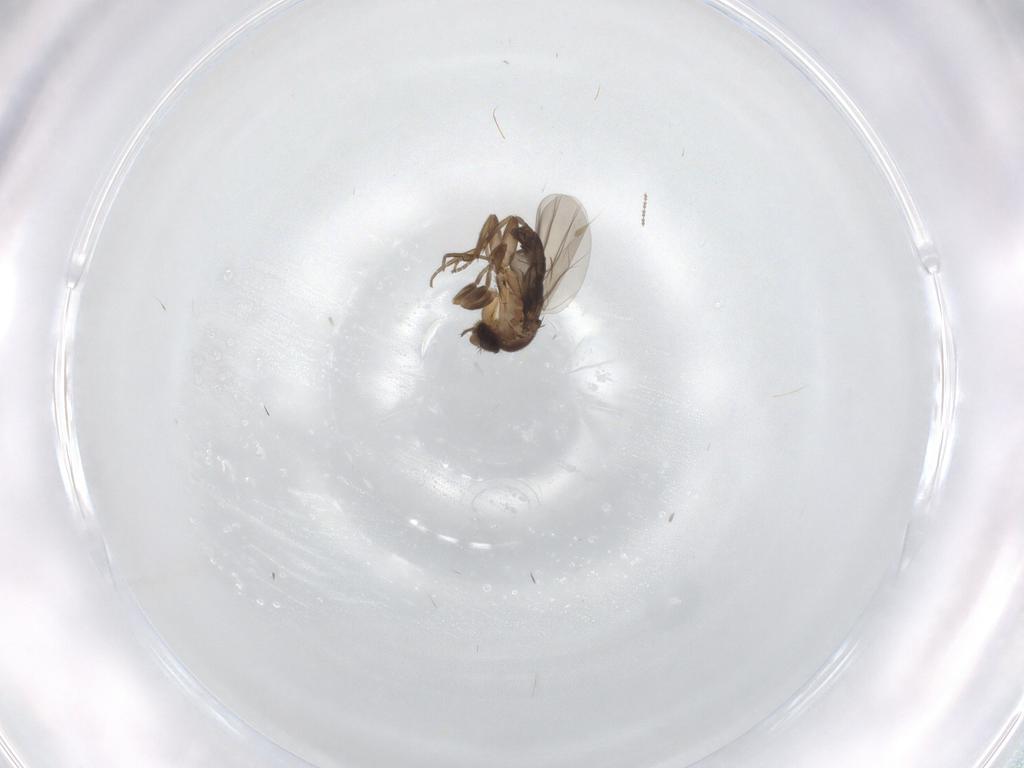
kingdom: Animalia
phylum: Arthropoda
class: Insecta
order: Diptera
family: Phoridae
